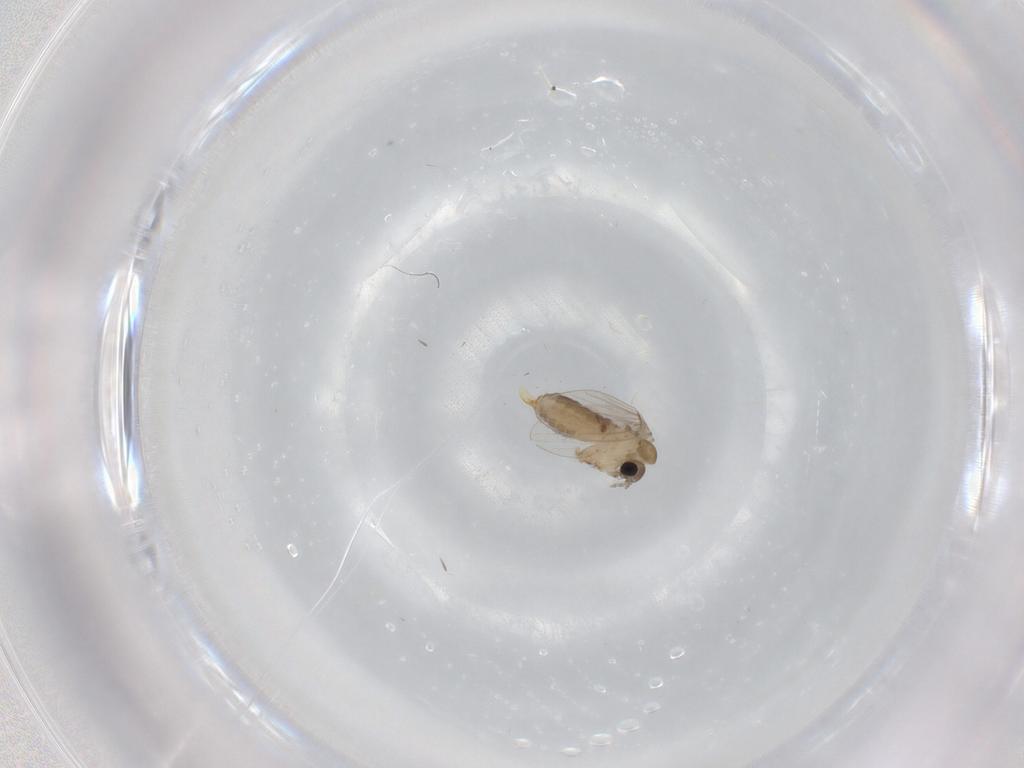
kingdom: Animalia
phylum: Arthropoda
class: Insecta
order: Diptera
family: Psychodidae
